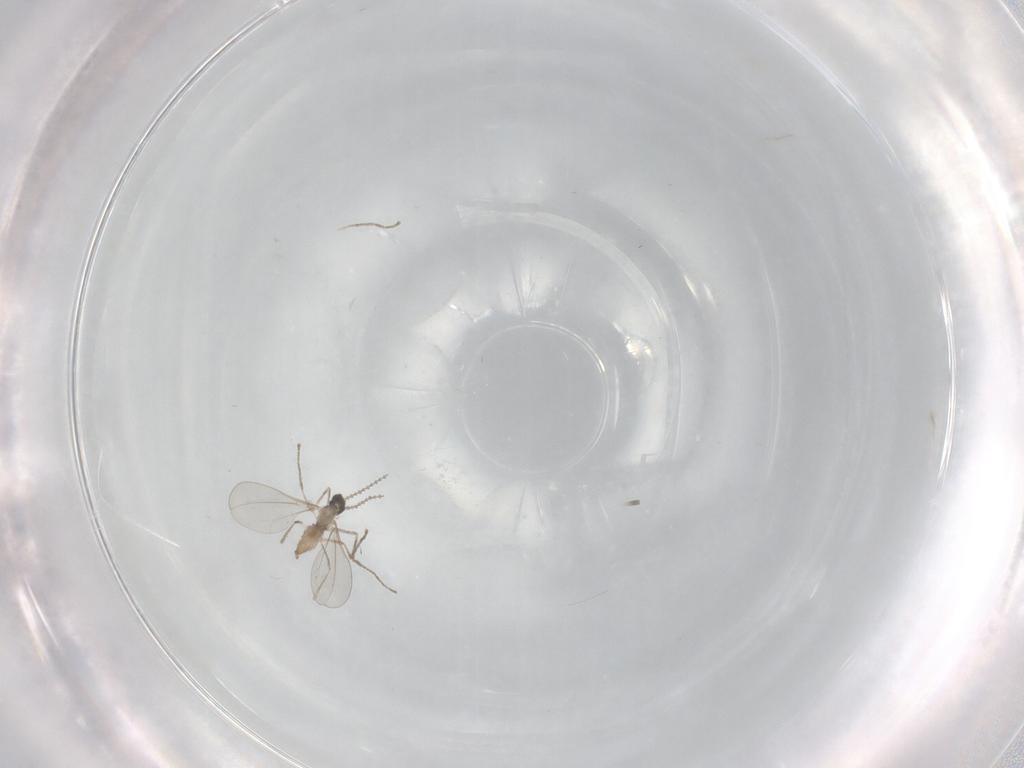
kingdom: Animalia
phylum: Arthropoda
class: Insecta
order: Diptera
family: Cecidomyiidae
